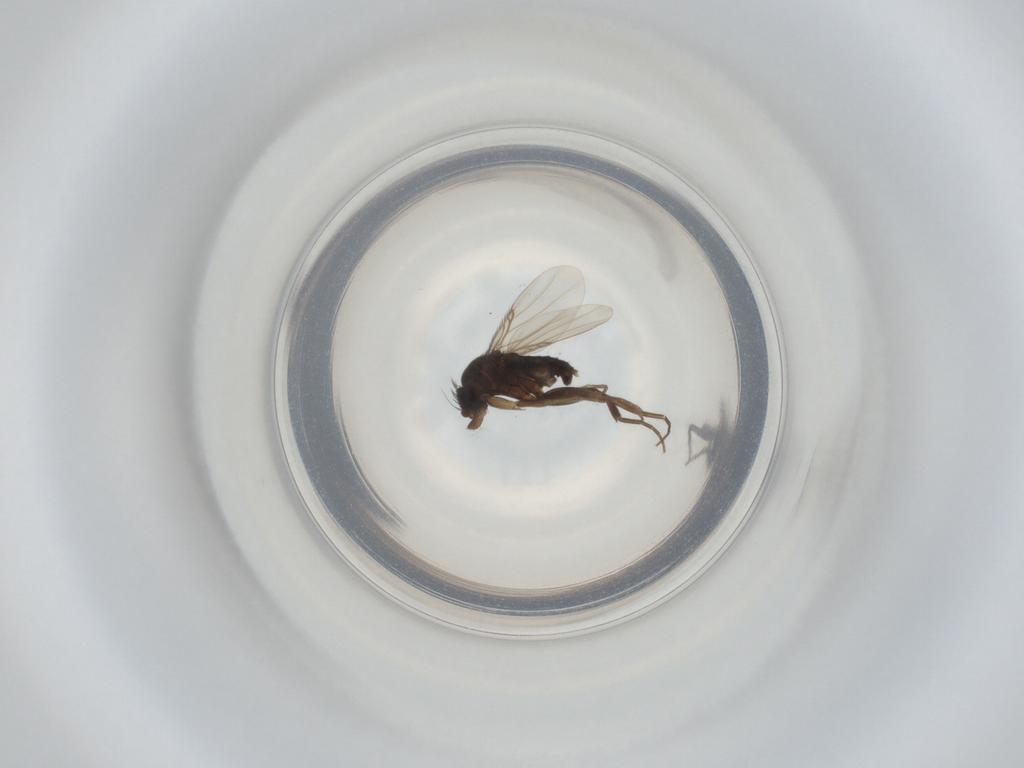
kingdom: Animalia
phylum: Arthropoda
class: Insecta
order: Diptera
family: Phoridae
